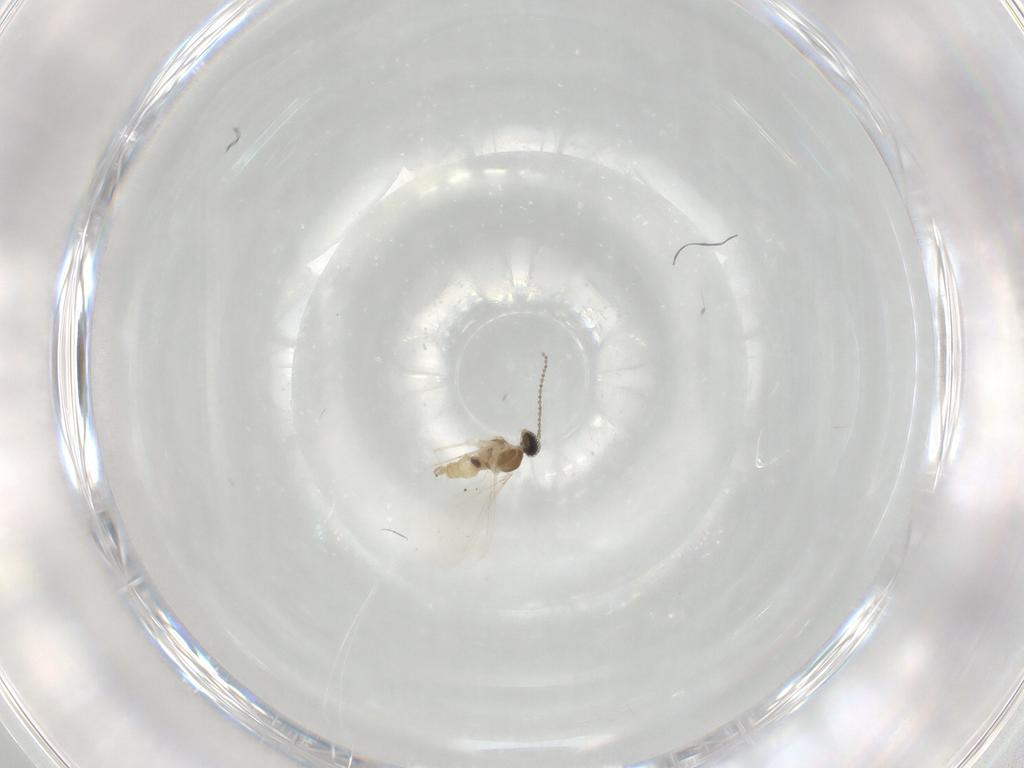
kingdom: Animalia
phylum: Arthropoda
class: Insecta
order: Diptera
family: Cecidomyiidae
